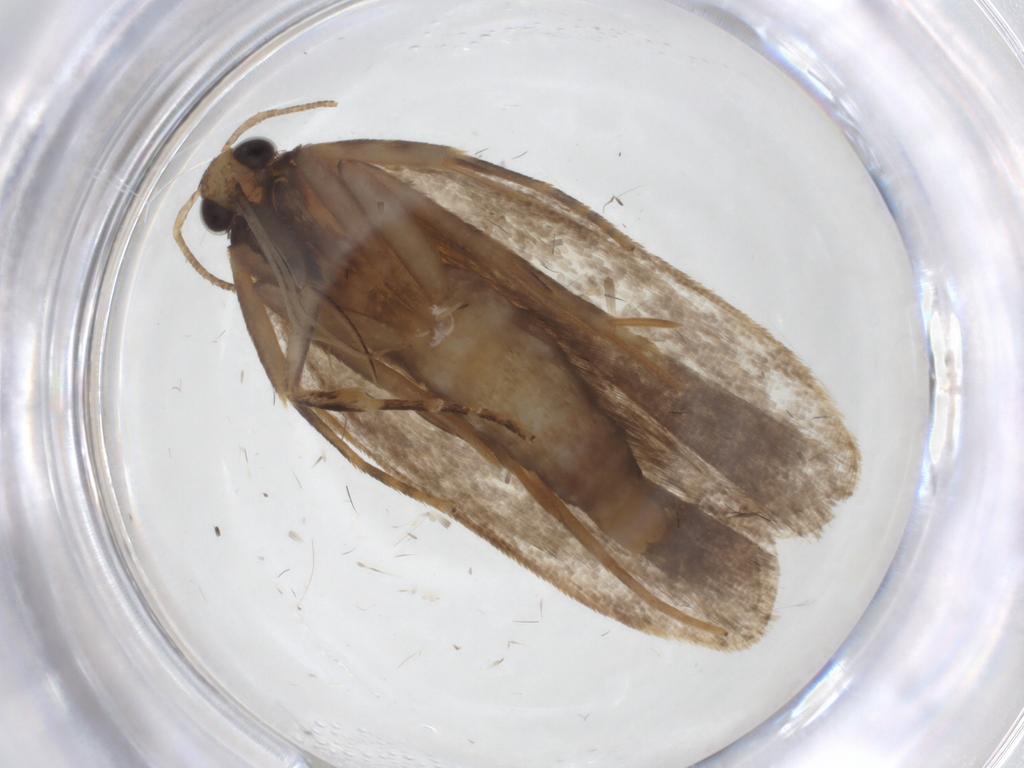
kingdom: Animalia
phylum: Arthropoda
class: Insecta
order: Lepidoptera
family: Gelechiidae
